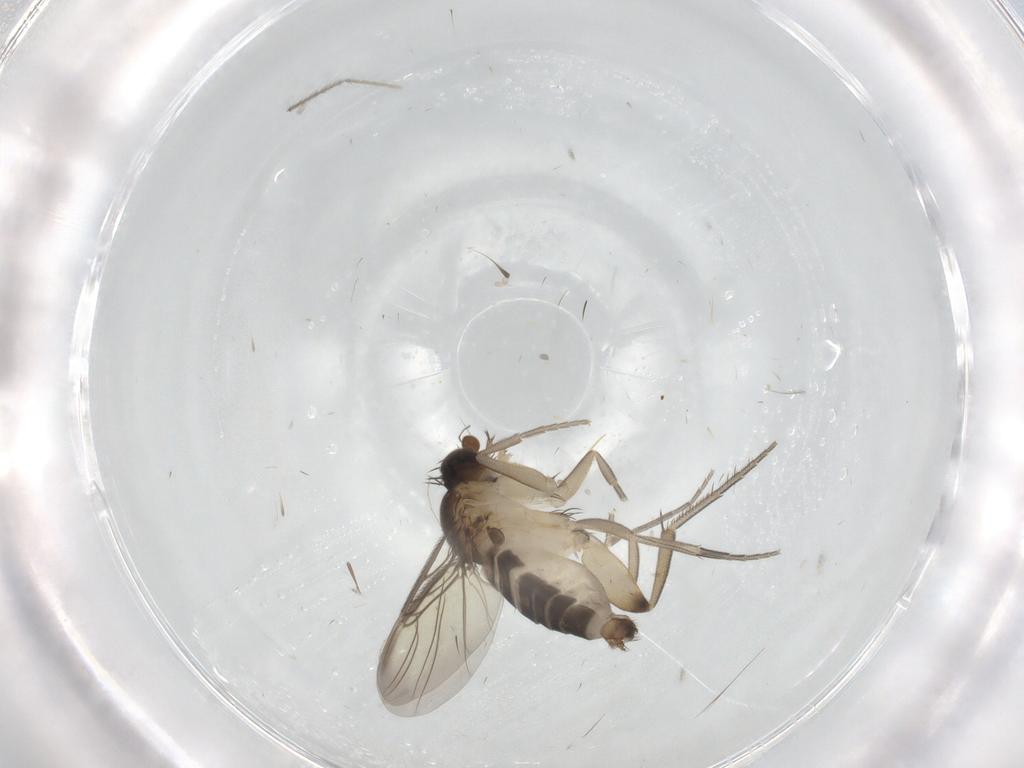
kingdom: Animalia
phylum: Arthropoda
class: Insecta
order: Diptera
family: Phoridae
